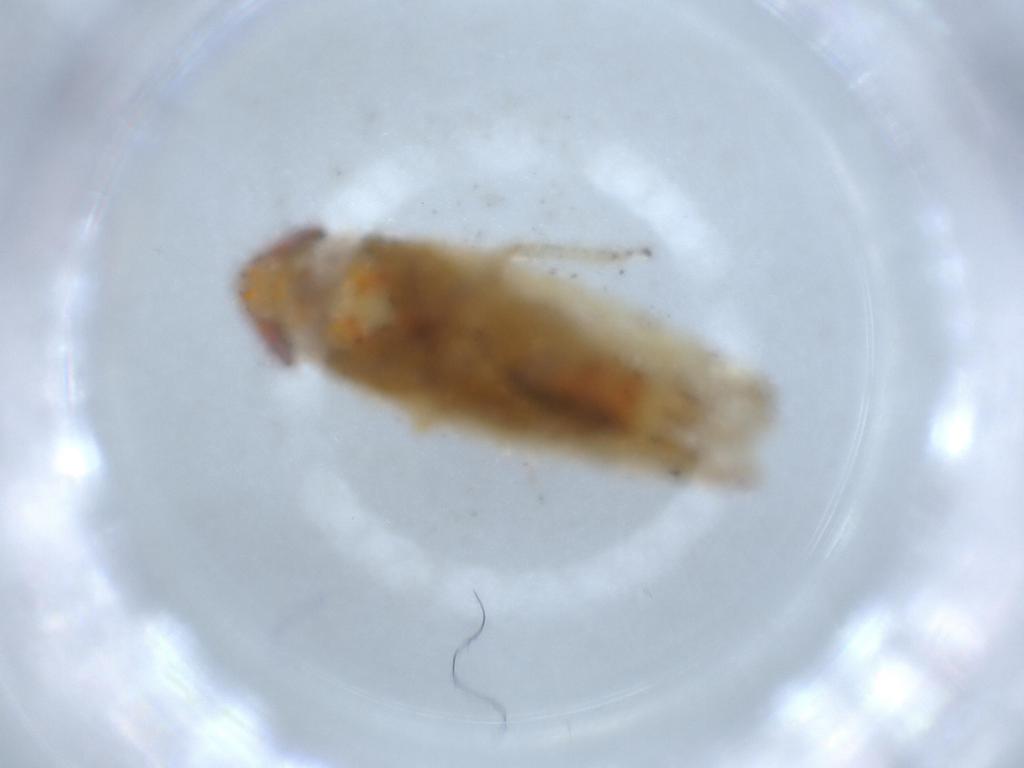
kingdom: Animalia
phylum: Arthropoda
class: Insecta
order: Hemiptera
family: Cicadellidae
